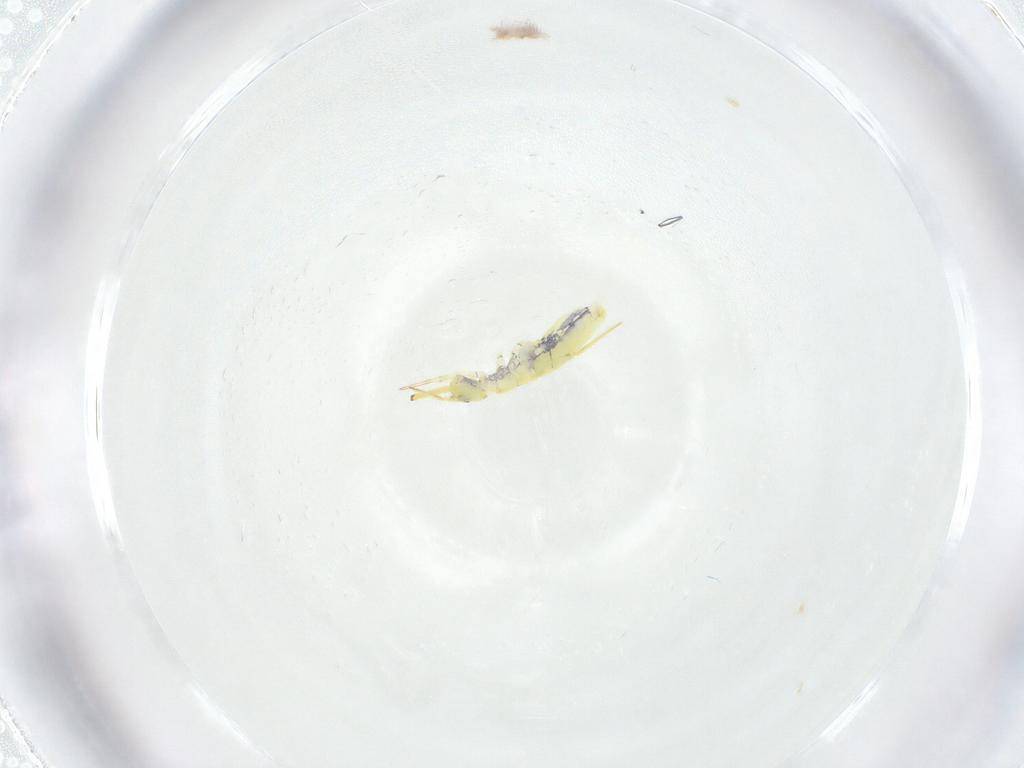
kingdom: Animalia
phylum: Arthropoda
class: Collembola
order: Entomobryomorpha
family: Paronellidae
